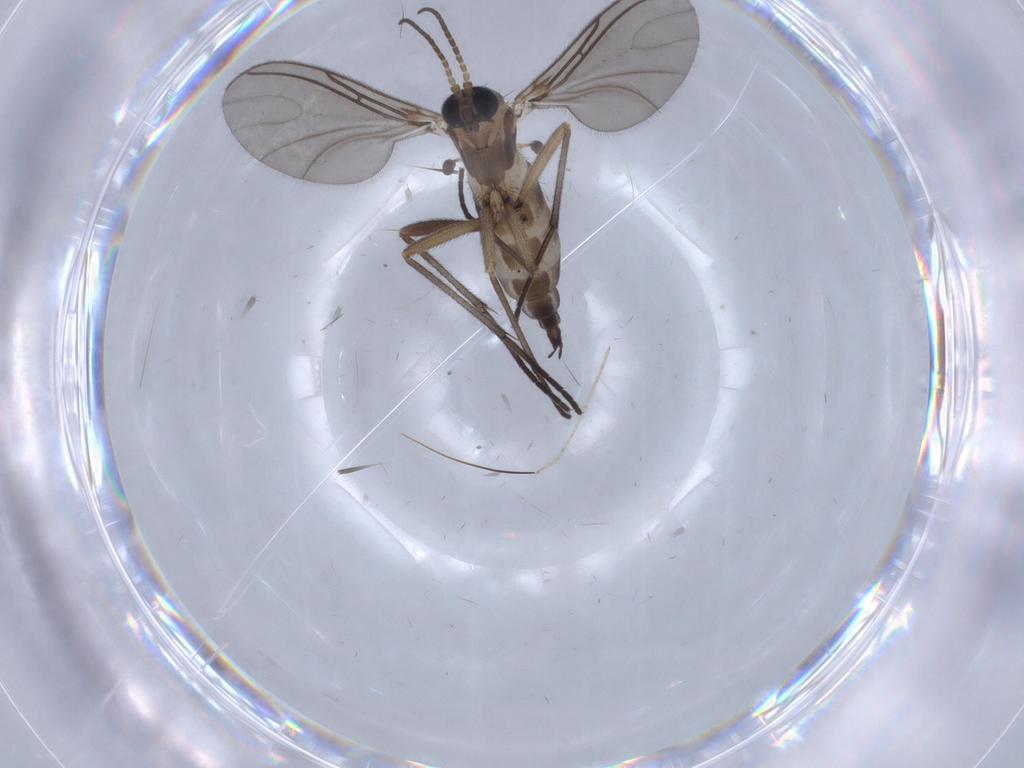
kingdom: Animalia
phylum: Arthropoda
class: Insecta
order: Diptera
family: Sciaridae
